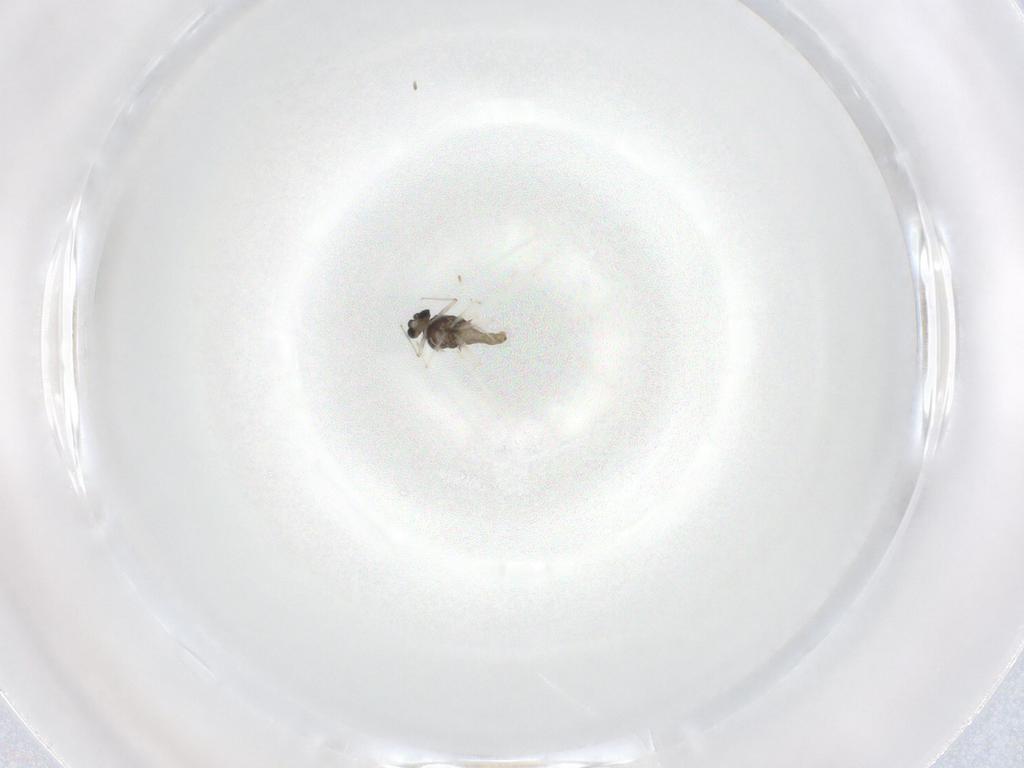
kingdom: Animalia
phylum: Arthropoda
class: Insecta
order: Diptera
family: Chironomidae
